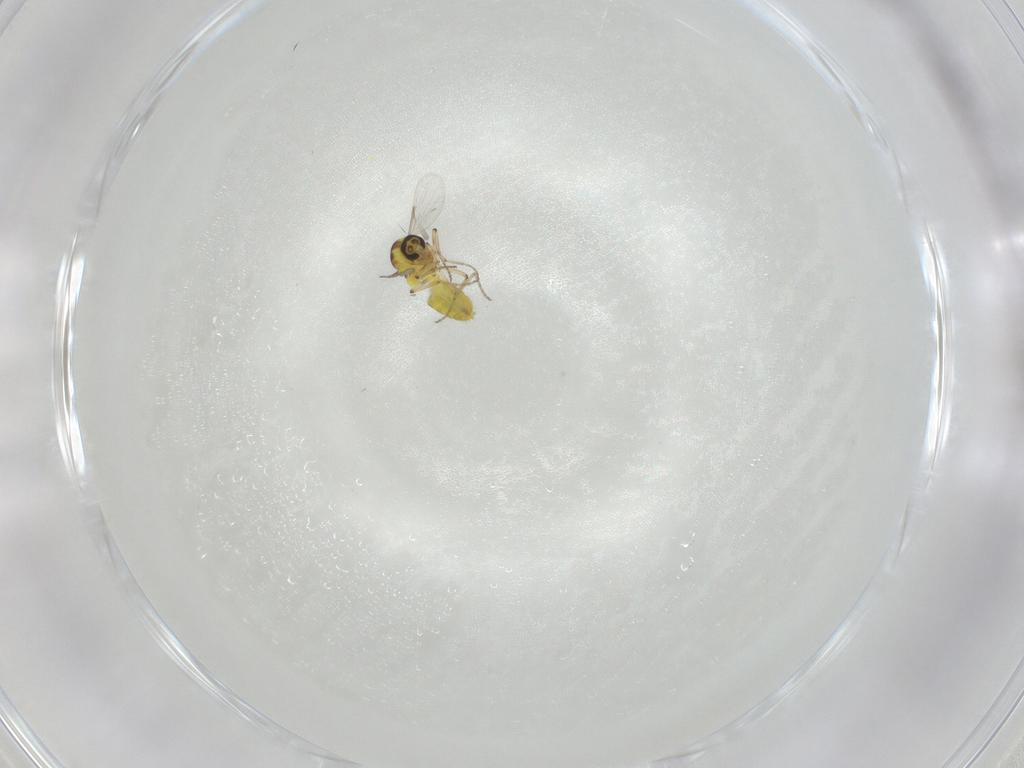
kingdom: Animalia
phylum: Arthropoda
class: Insecta
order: Diptera
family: Ceratopogonidae
